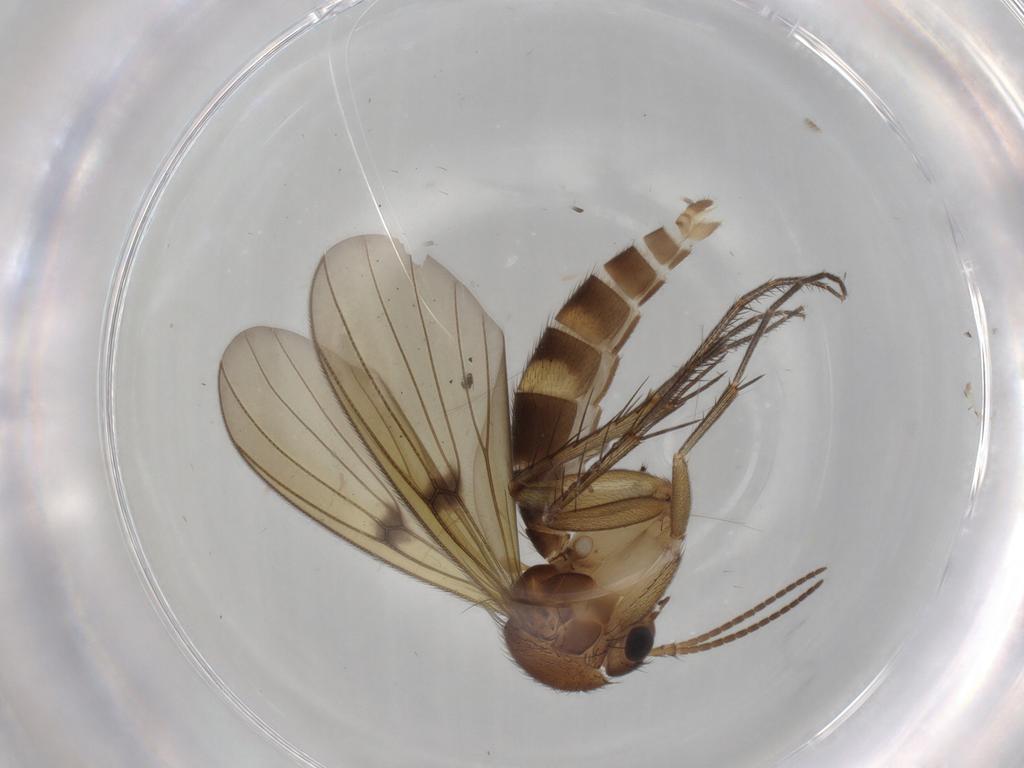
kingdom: Animalia
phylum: Arthropoda
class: Insecta
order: Diptera
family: Mycetophilidae
